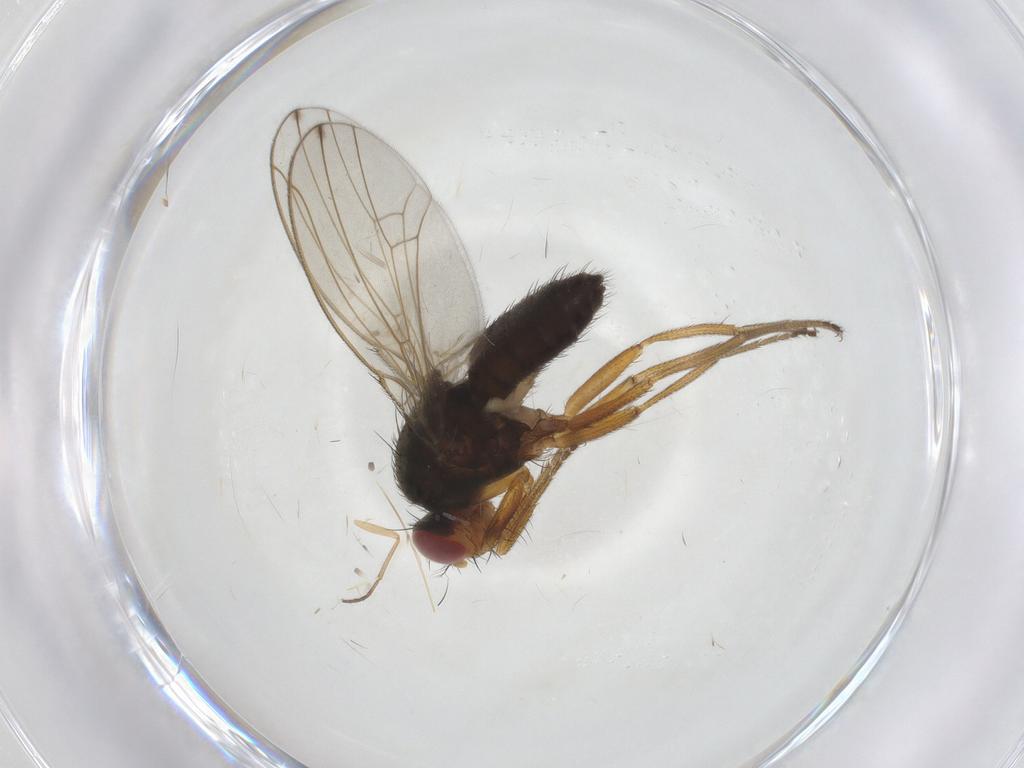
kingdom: Animalia
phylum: Arthropoda
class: Insecta
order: Diptera
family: Drosophilidae
